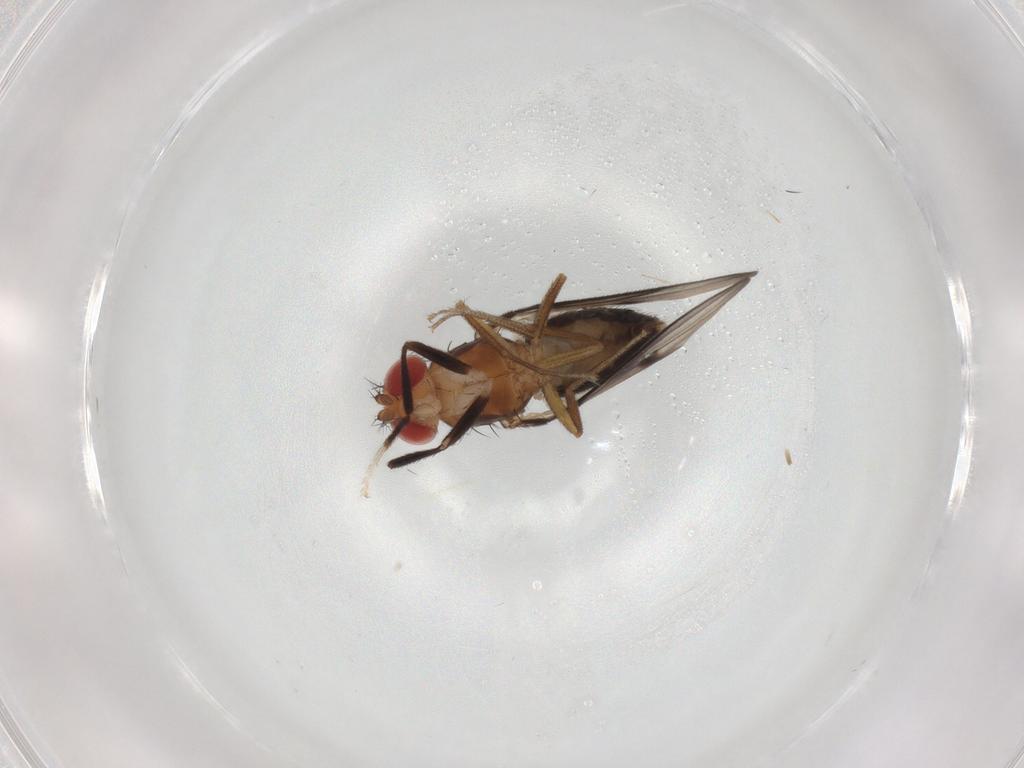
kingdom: Animalia
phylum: Arthropoda
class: Insecta
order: Diptera
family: Drosophilidae
